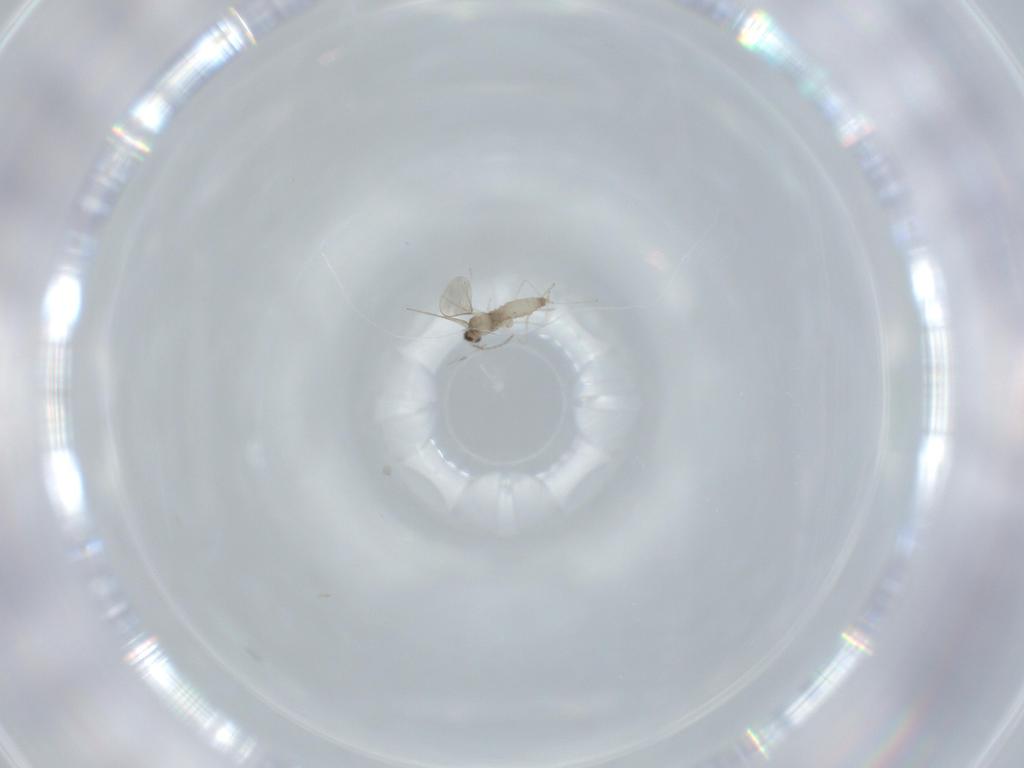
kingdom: Animalia
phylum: Arthropoda
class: Insecta
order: Diptera
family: Cecidomyiidae
